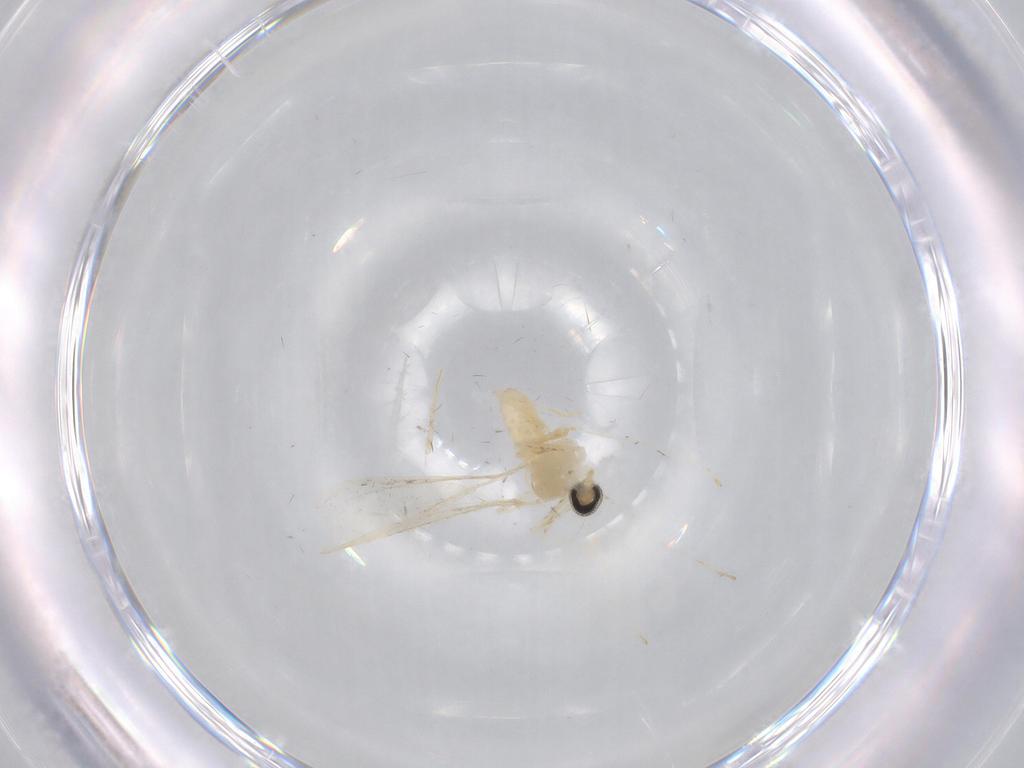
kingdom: Animalia
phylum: Arthropoda
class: Insecta
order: Diptera
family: Cecidomyiidae
